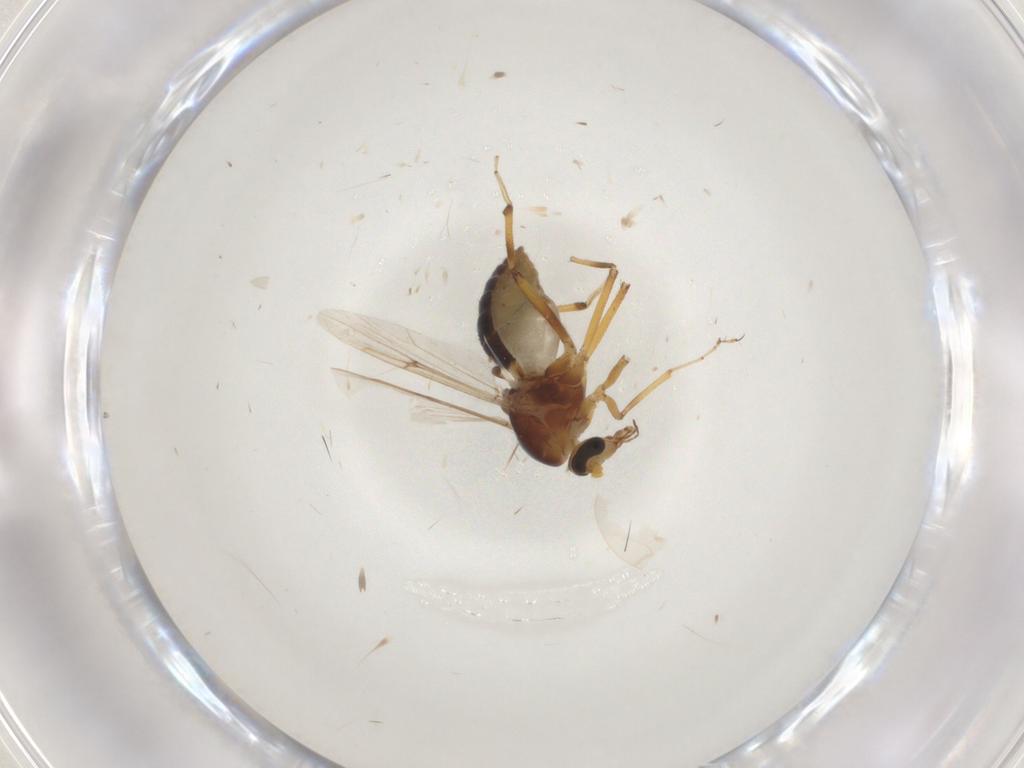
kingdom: Animalia
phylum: Arthropoda
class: Insecta
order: Diptera
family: Ceratopogonidae
